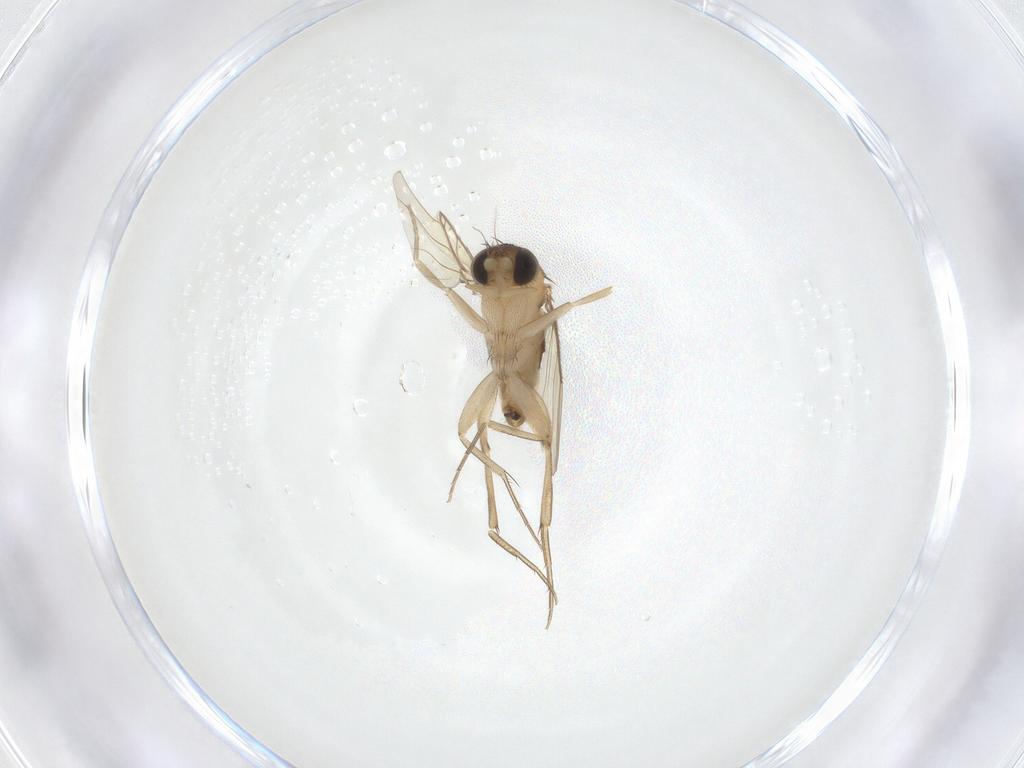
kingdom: Animalia
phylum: Arthropoda
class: Insecta
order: Diptera
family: Phoridae
